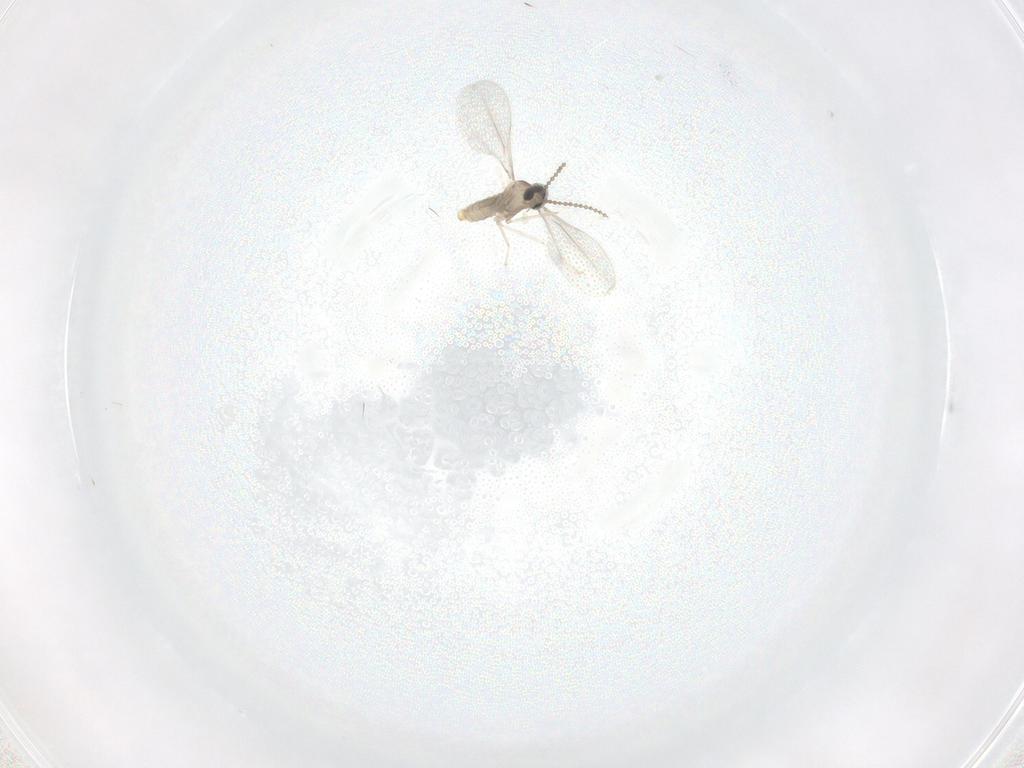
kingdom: Animalia
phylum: Arthropoda
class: Insecta
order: Diptera
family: Cecidomyiidae
